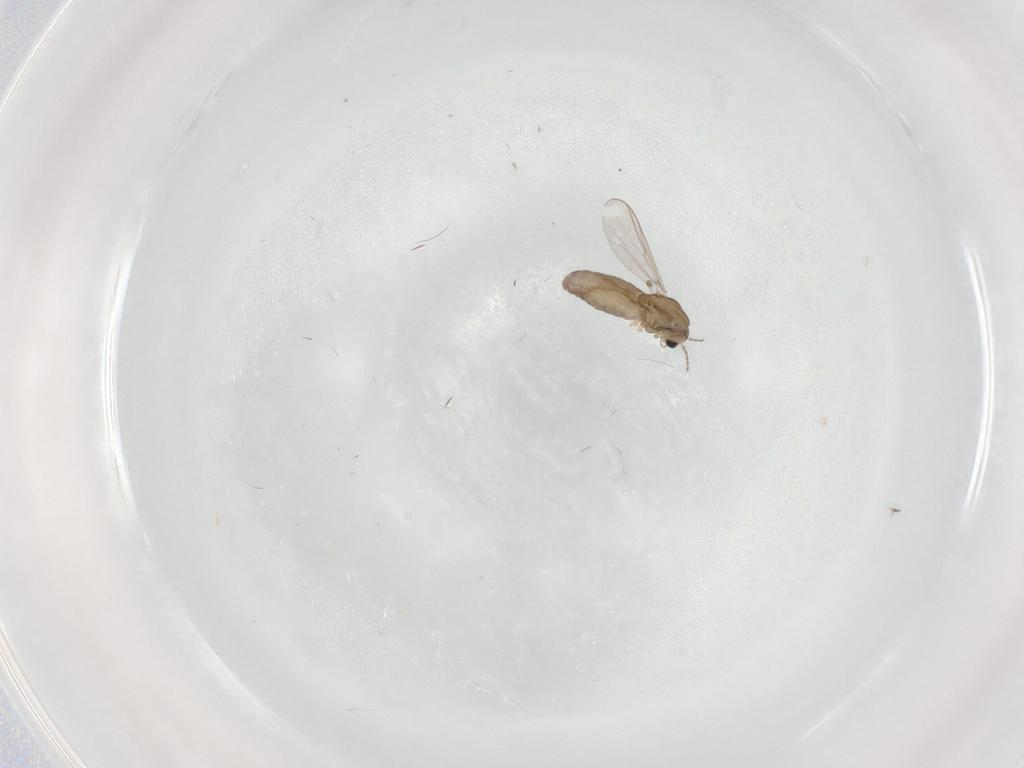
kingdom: Animalia
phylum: Arthropoda
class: Insecta
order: Diptera
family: Chironomidae
